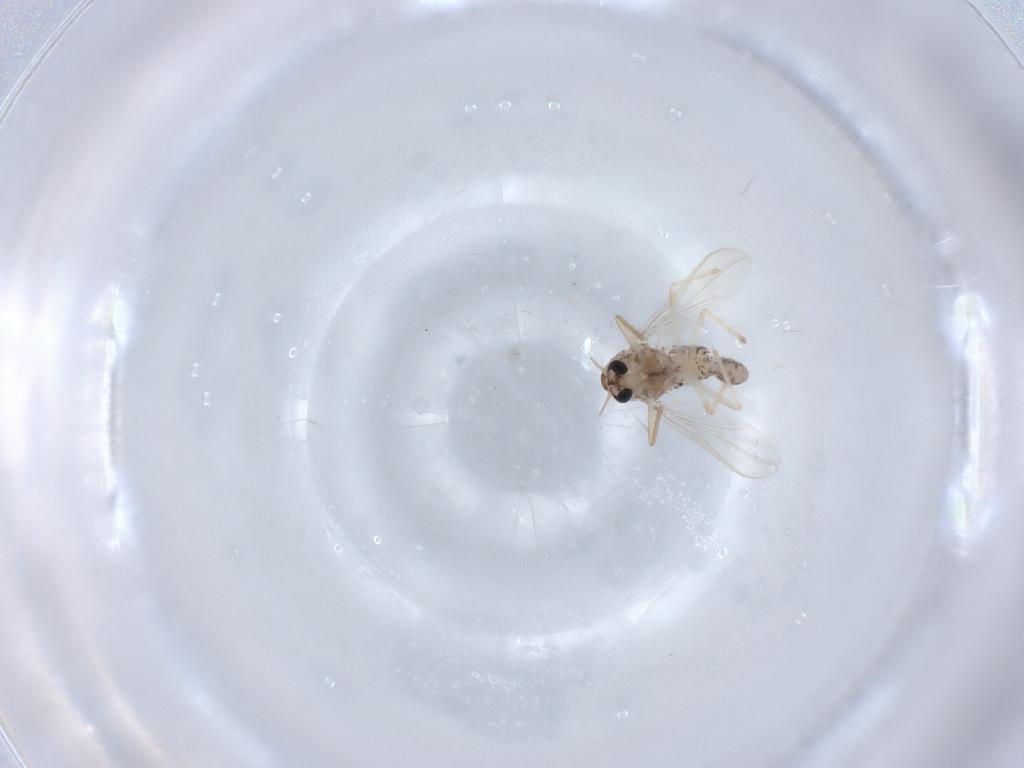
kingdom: Animalia
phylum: Arthropoda
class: Insecta
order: Diptera
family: Chironomidae
